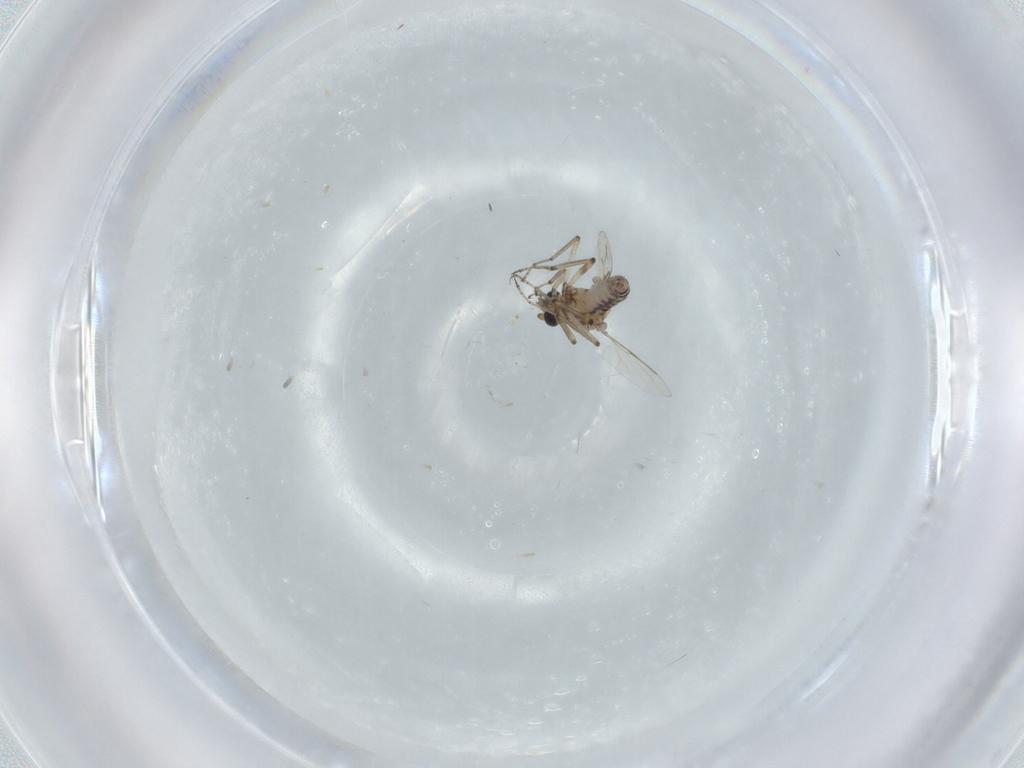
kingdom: Animalia
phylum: Arthropoda
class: Insecta
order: Diptera
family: Ceratopogonidae
